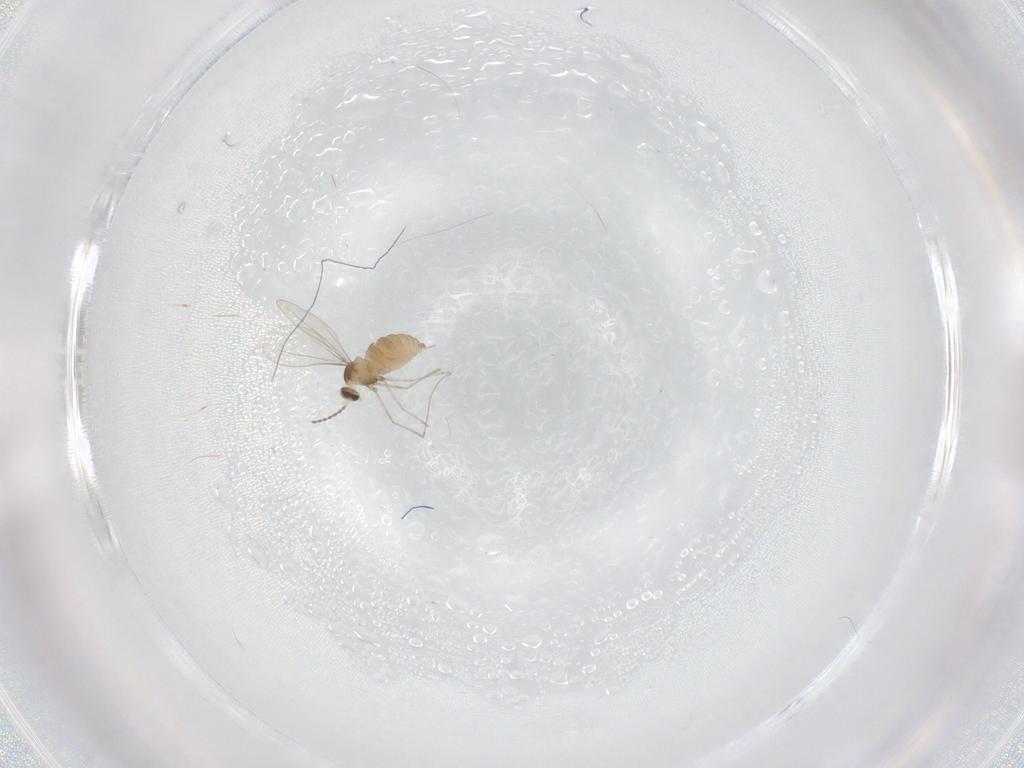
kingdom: Animalia
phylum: Arthropoda
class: Insecta
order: Diptera
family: Cecidomyiidae
